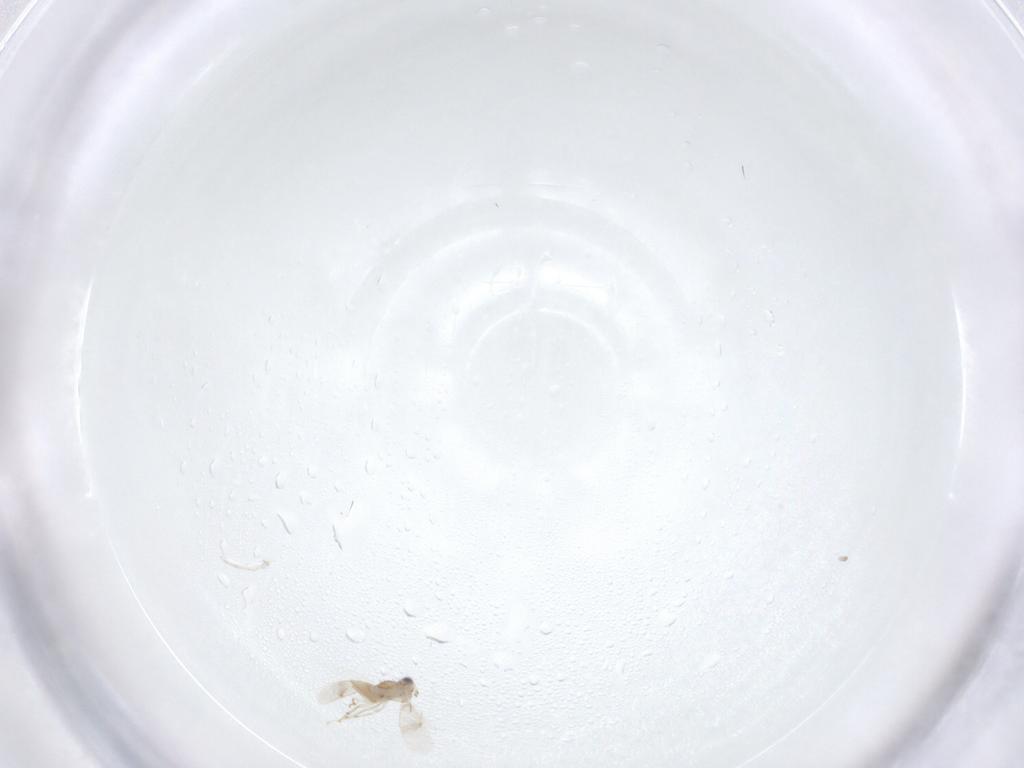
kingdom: Animalia
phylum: Arthropoda
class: Insecta
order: Hymenoptera
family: Aphelinidae
